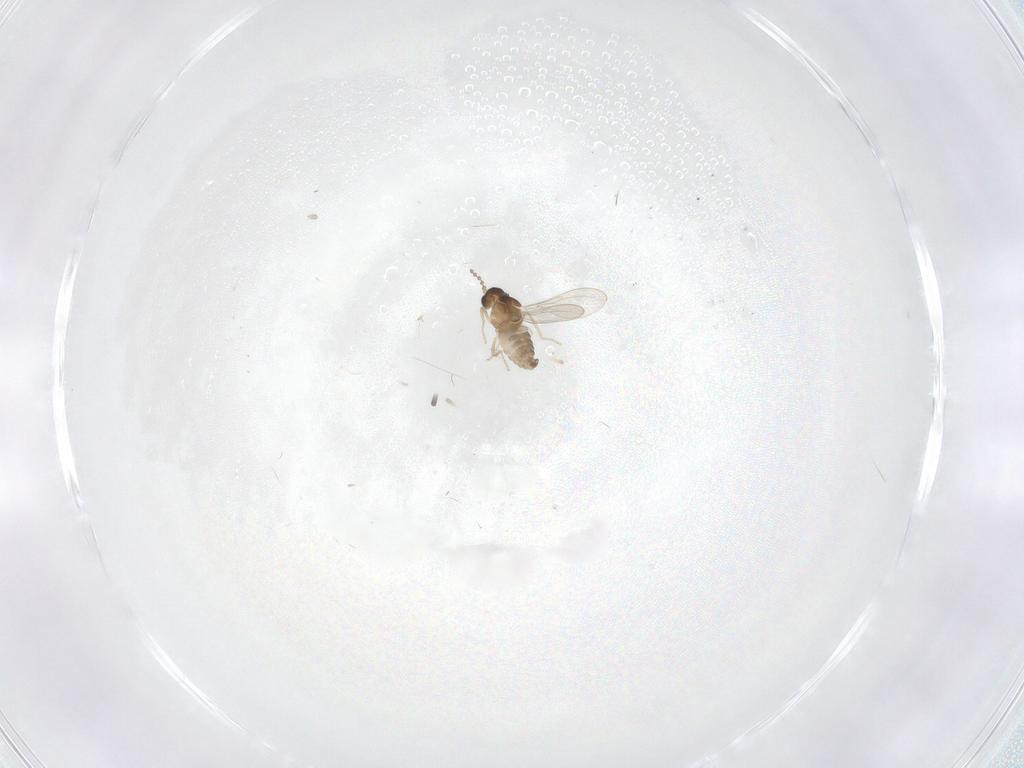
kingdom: Animalia
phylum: Arthropoda
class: Insecta
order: Diptera
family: Cecidomyiidae
